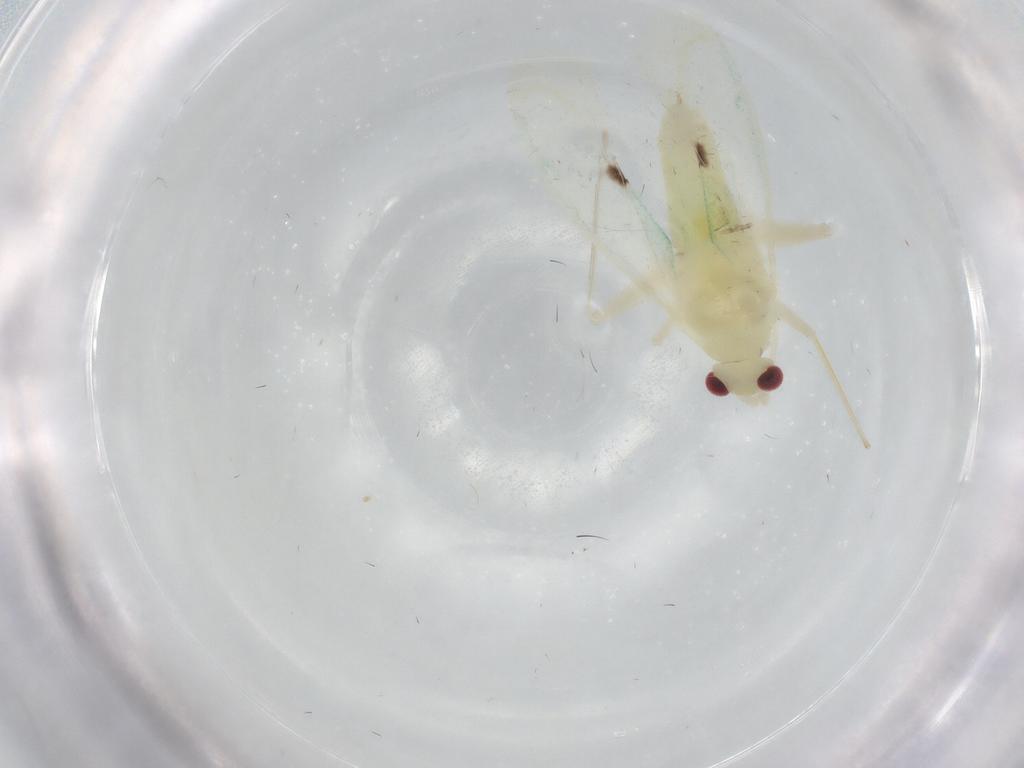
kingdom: Animalia
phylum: Arthropoda
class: Insecta
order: Hemiptera
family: Miridae
